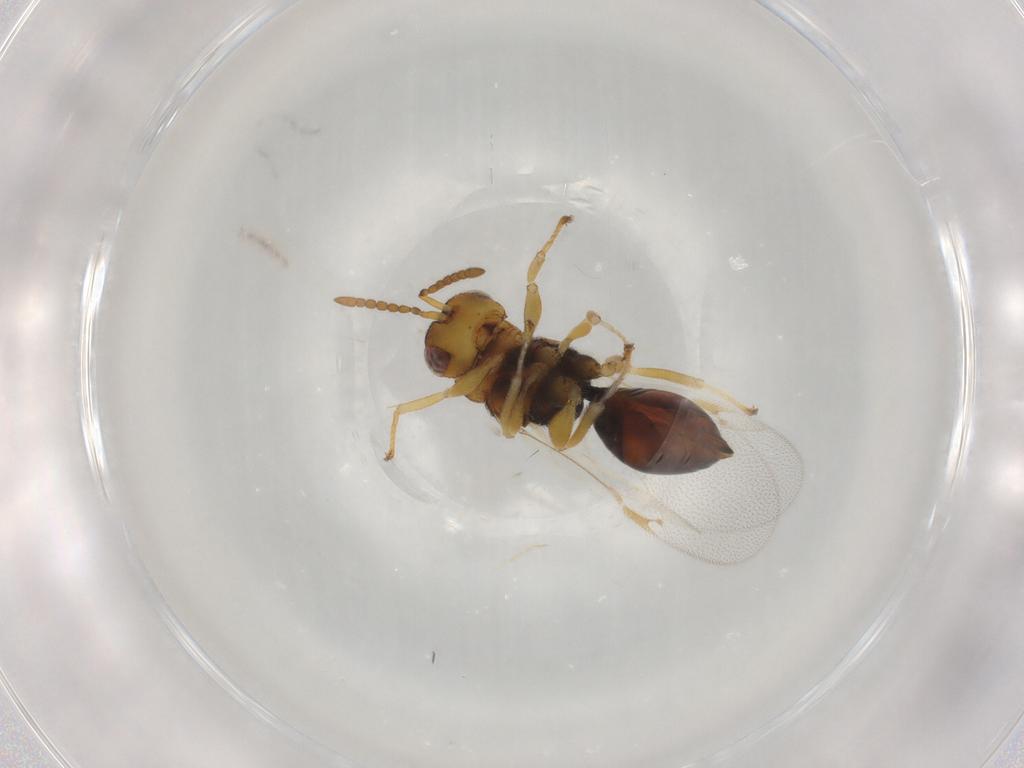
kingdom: Animalia
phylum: Arthropoda
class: Insecta
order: Hymenoptera
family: Eurytomidae
